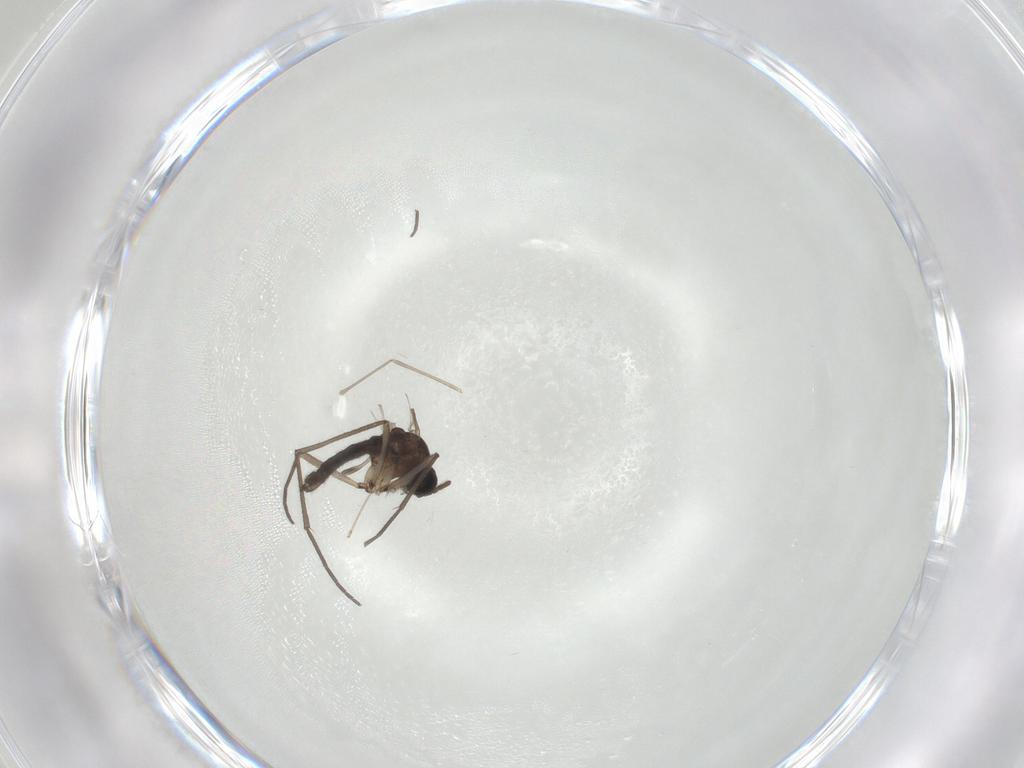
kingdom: Animalia
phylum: Arthropoda
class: Insecta
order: Diptera
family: Sciaridae
